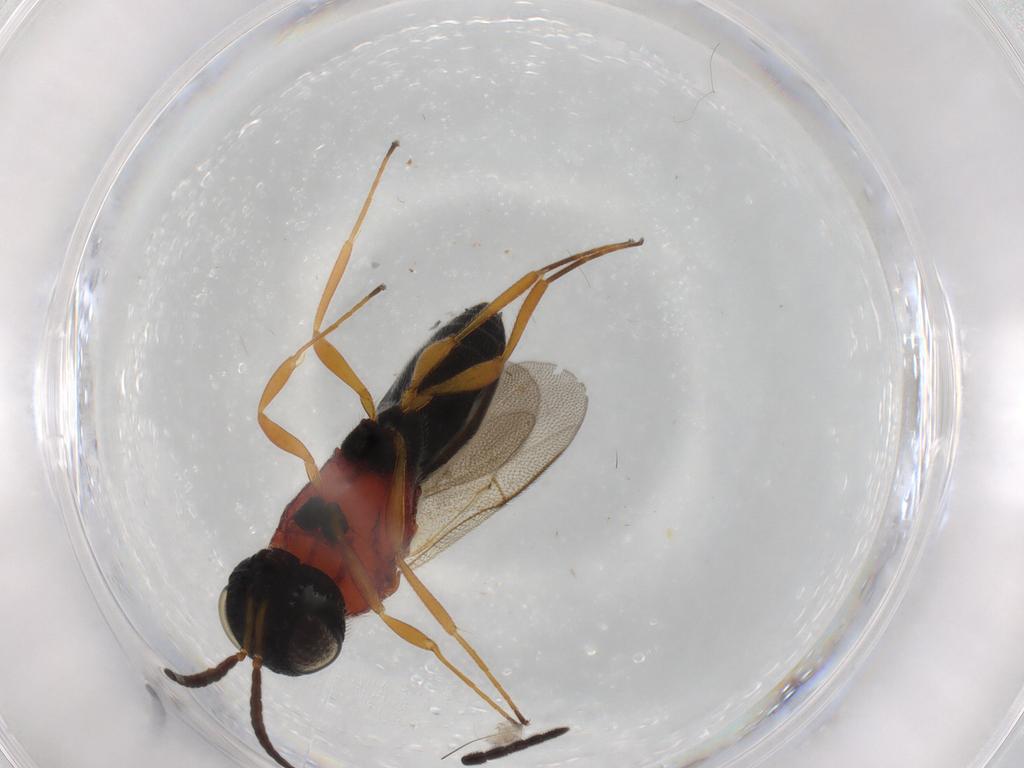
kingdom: Animalia
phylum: Arthropoda
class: Insecta
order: Hymenoptera
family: Scelionidae
